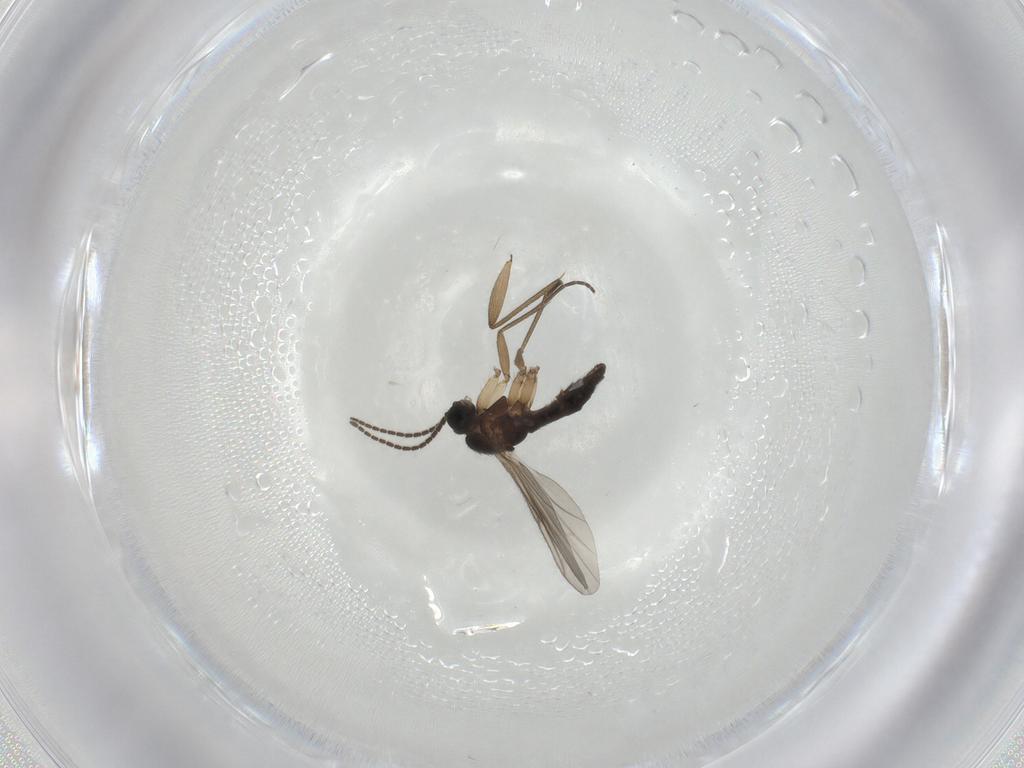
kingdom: Animalia
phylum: Arthropoda
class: Insecta
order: Diptera
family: Sciaridae
